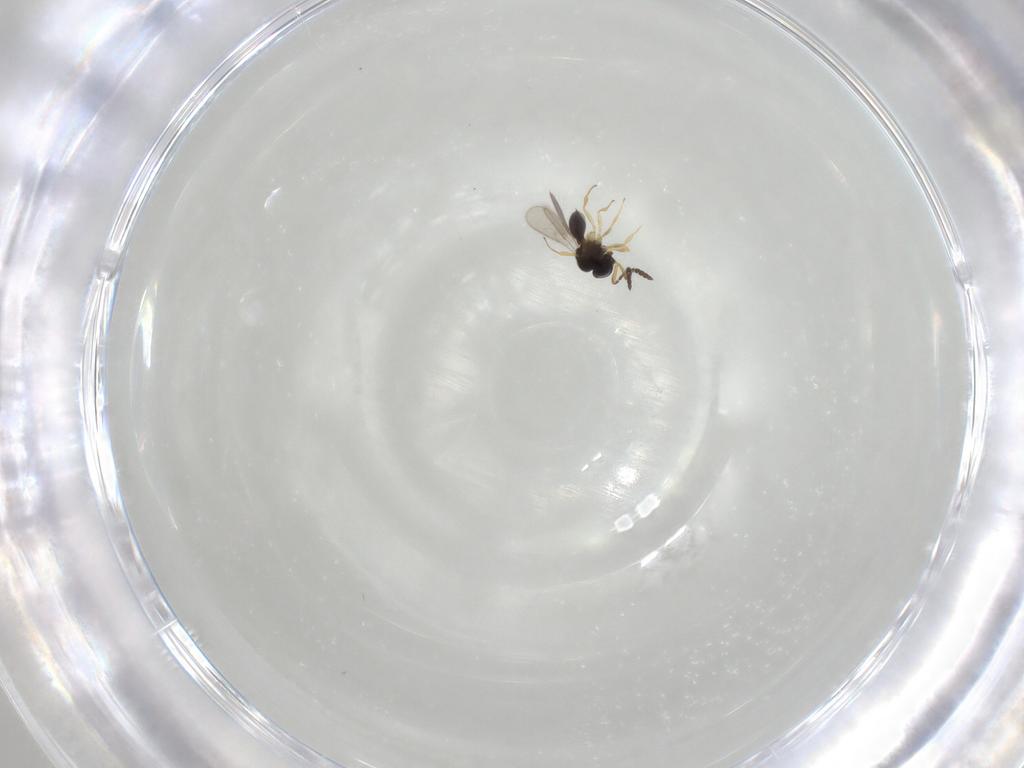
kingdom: Animalia
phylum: Arthropoda
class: Insecta
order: Hymenoptera
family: Scelionidae
